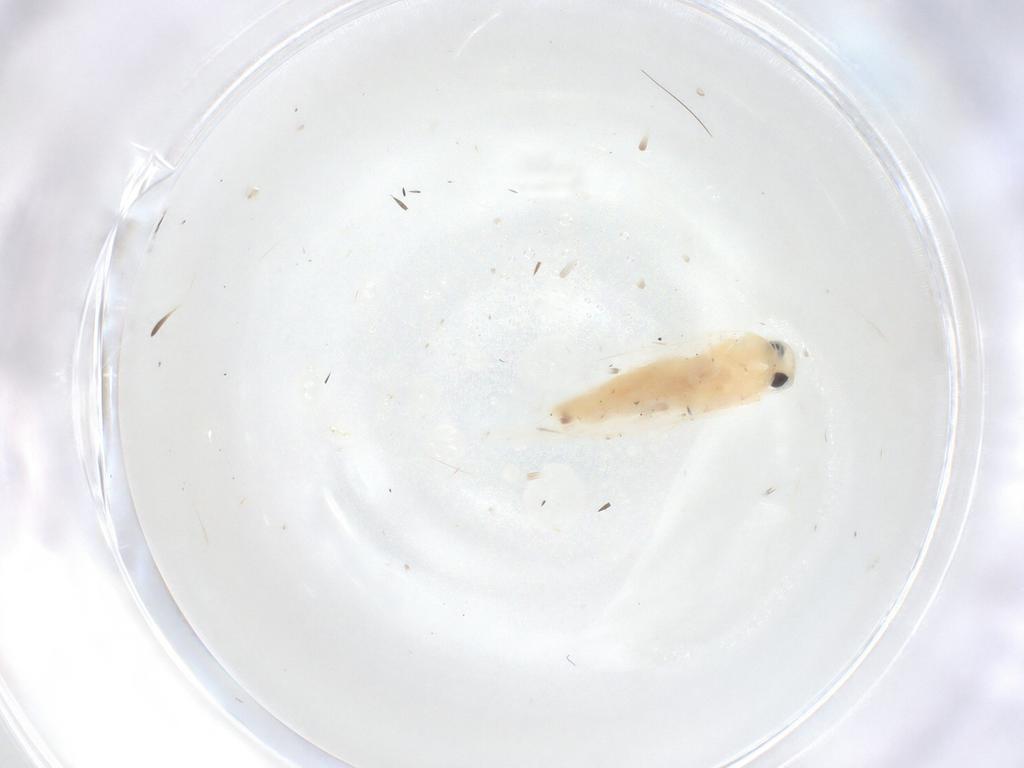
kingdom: Animalia
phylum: Arthropoda
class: Insecta
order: Lepidoptera
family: Gelechiidae
